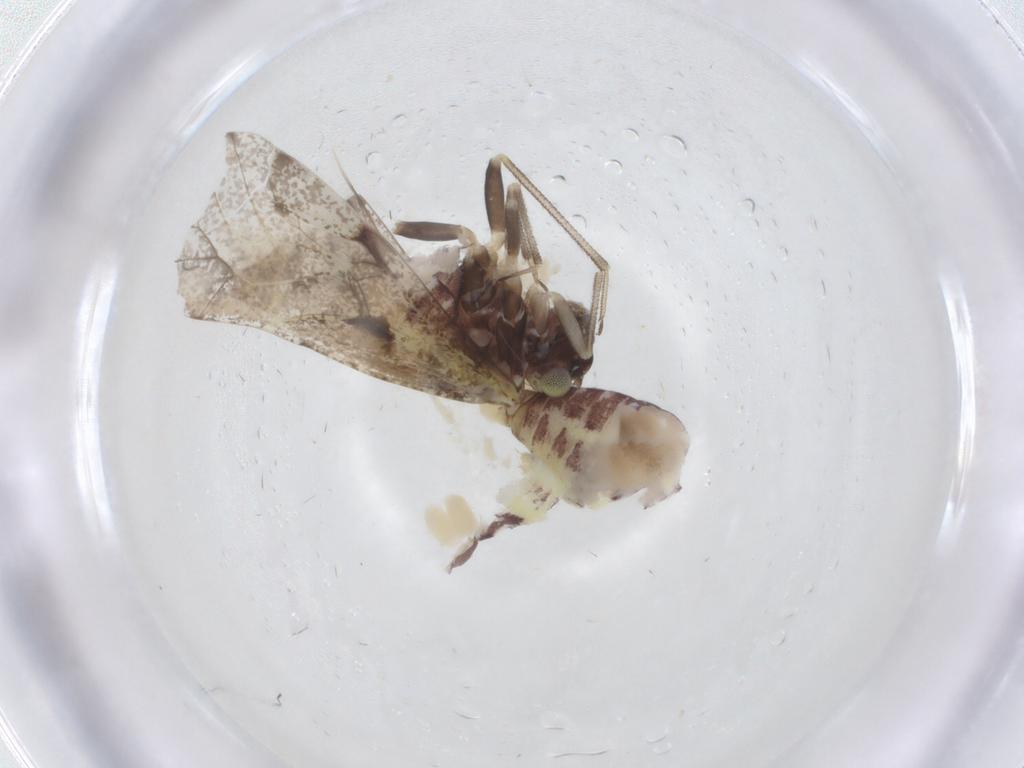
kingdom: Animalia
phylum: Arthropoda
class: Insecta
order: Psocodea
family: Psocidae
